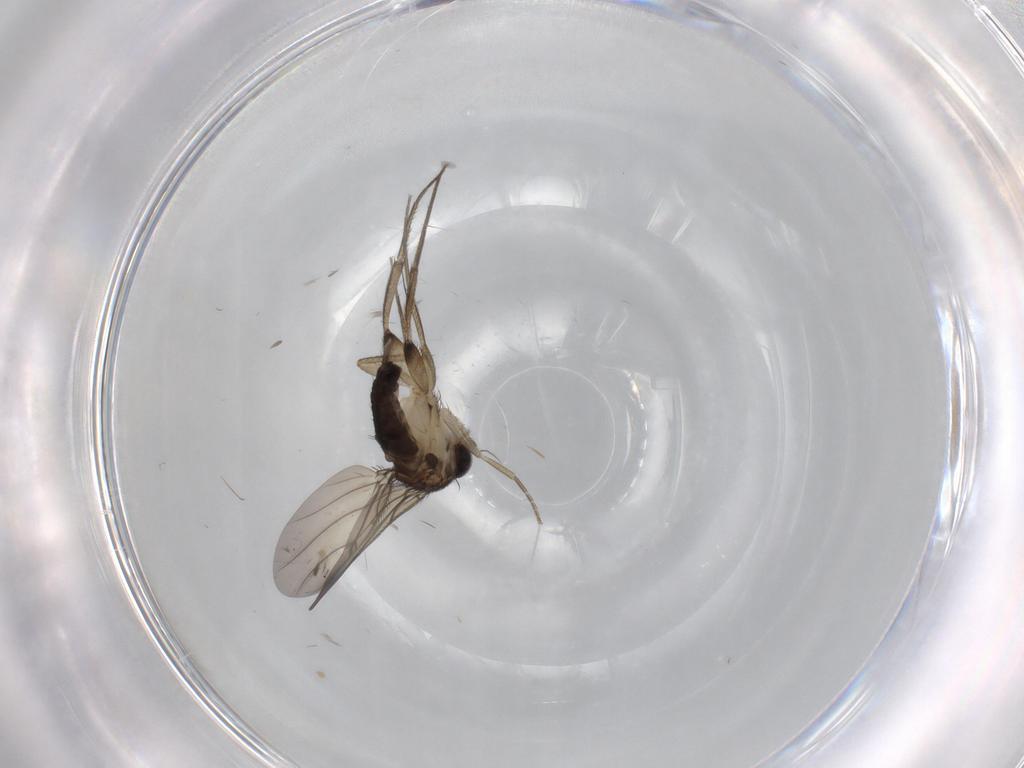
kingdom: Animalia
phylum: Arthropoda
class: Insecta
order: Diptera
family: Phoridae
